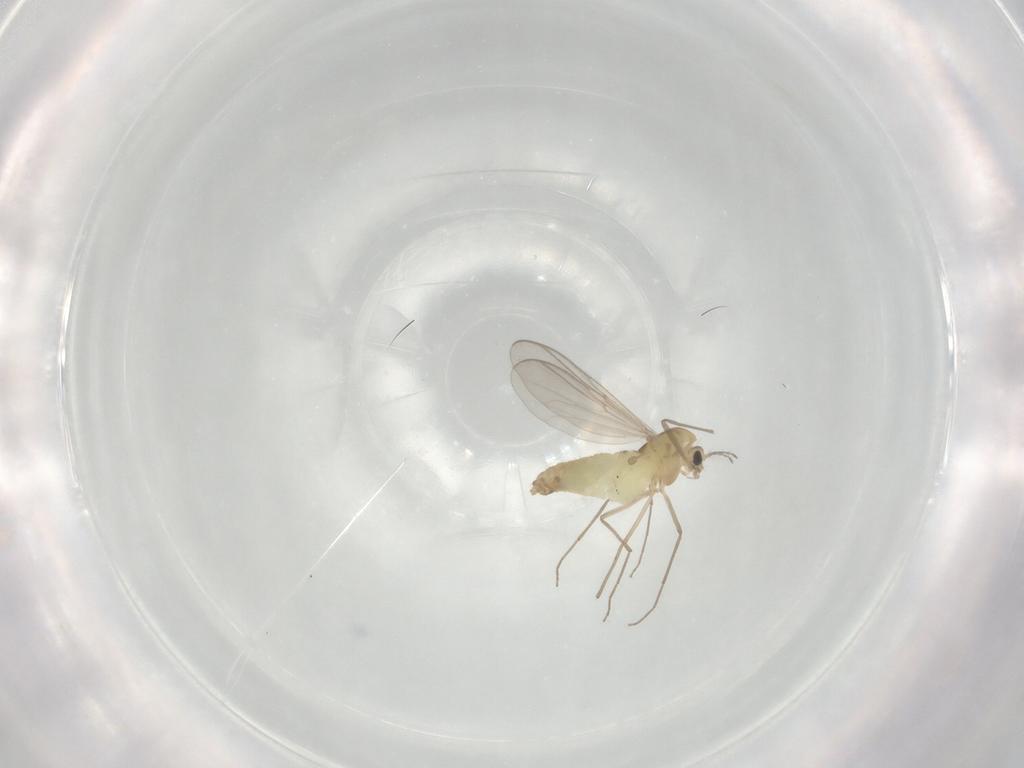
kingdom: Animalia
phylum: Arthropoda
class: Insecta
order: Diptera
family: Chironomidae
